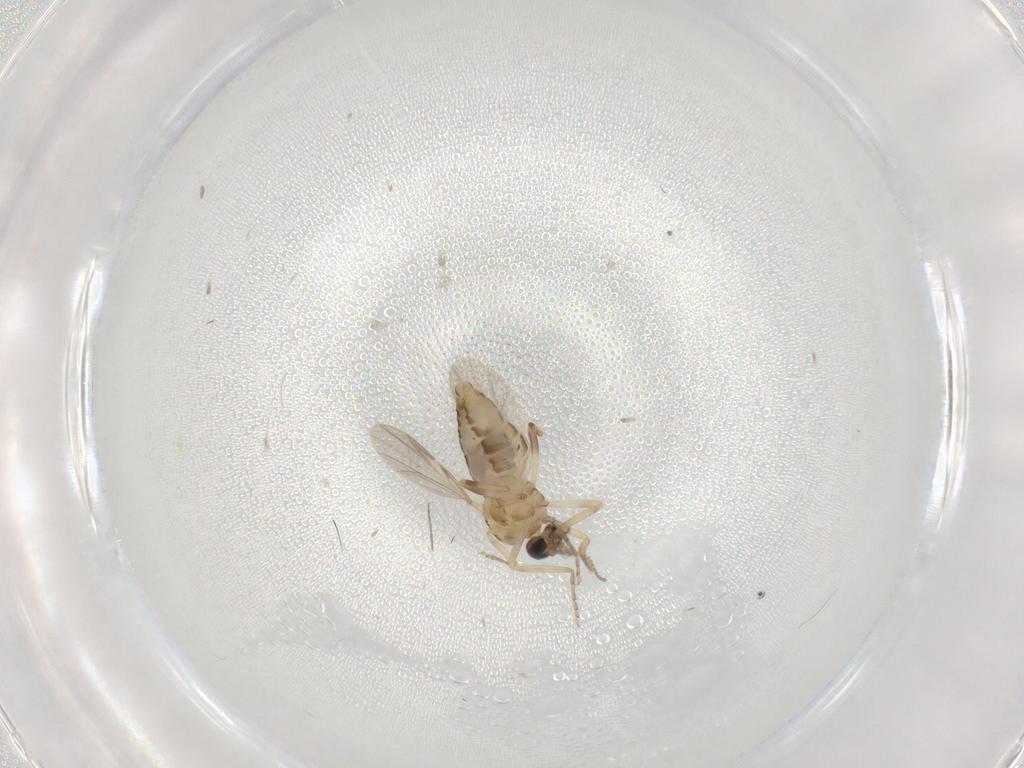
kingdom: Animalia
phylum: Arthropoda
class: Insecta
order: Diptera
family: Ceratopogonidae
